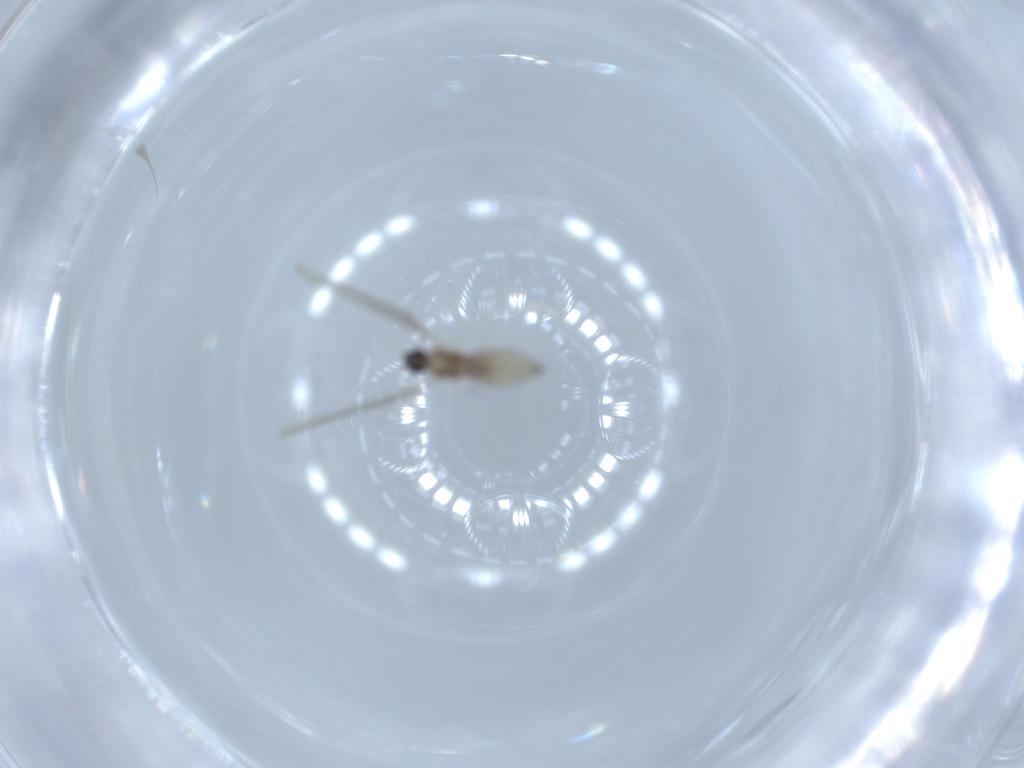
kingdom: Animalia
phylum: Arthropoda
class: Insecta
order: Diptera
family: Cecidomyiidae
